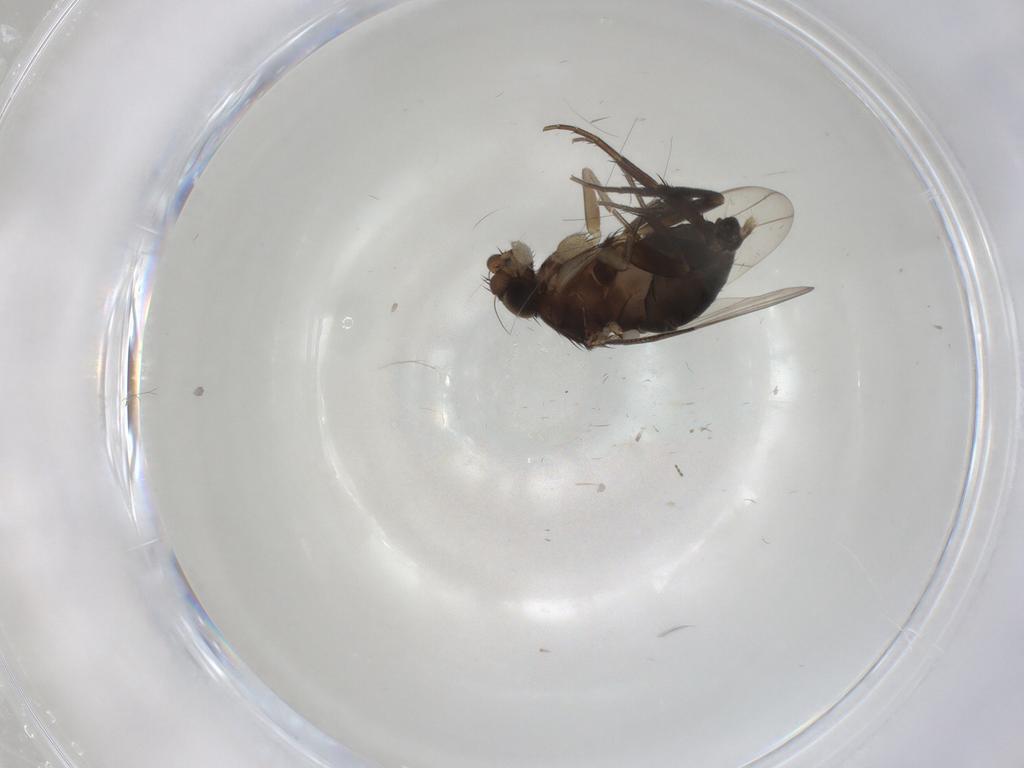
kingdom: Animalia
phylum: Arthropoda
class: Insecta
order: Diptera
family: Phoridae
